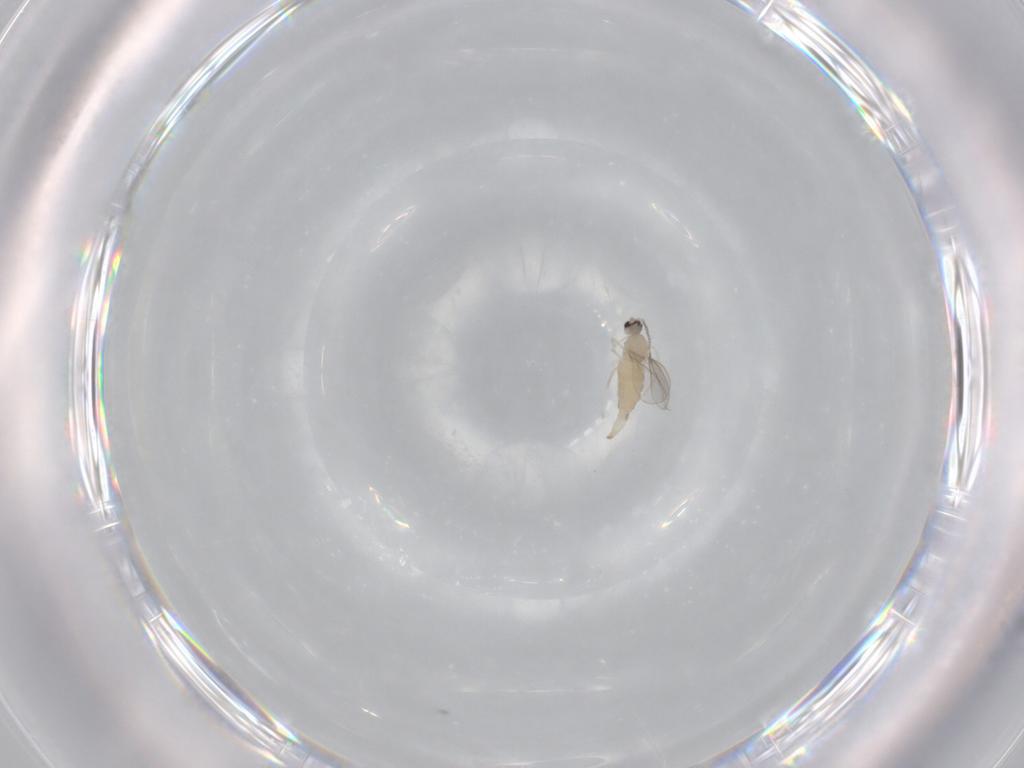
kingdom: Animalia
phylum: Arthropoda
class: Insecta
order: Diptera
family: Cecidomyiidae
